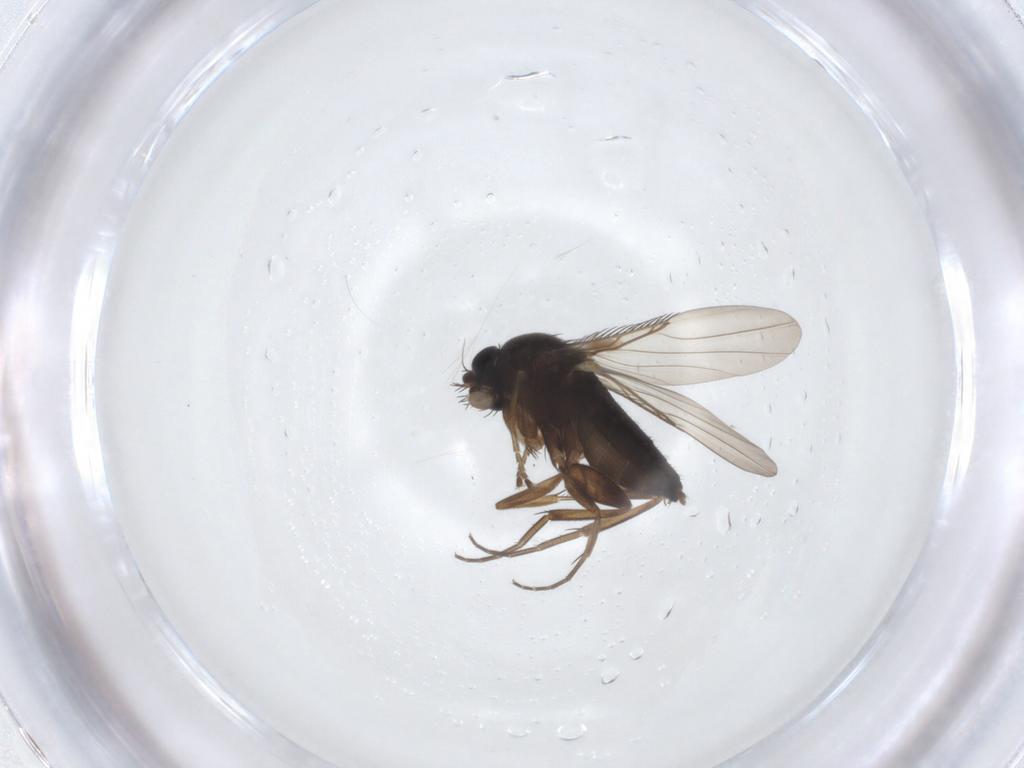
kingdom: Animalia
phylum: Arthropoda
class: Insecta
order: Diptera
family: Phoridae
